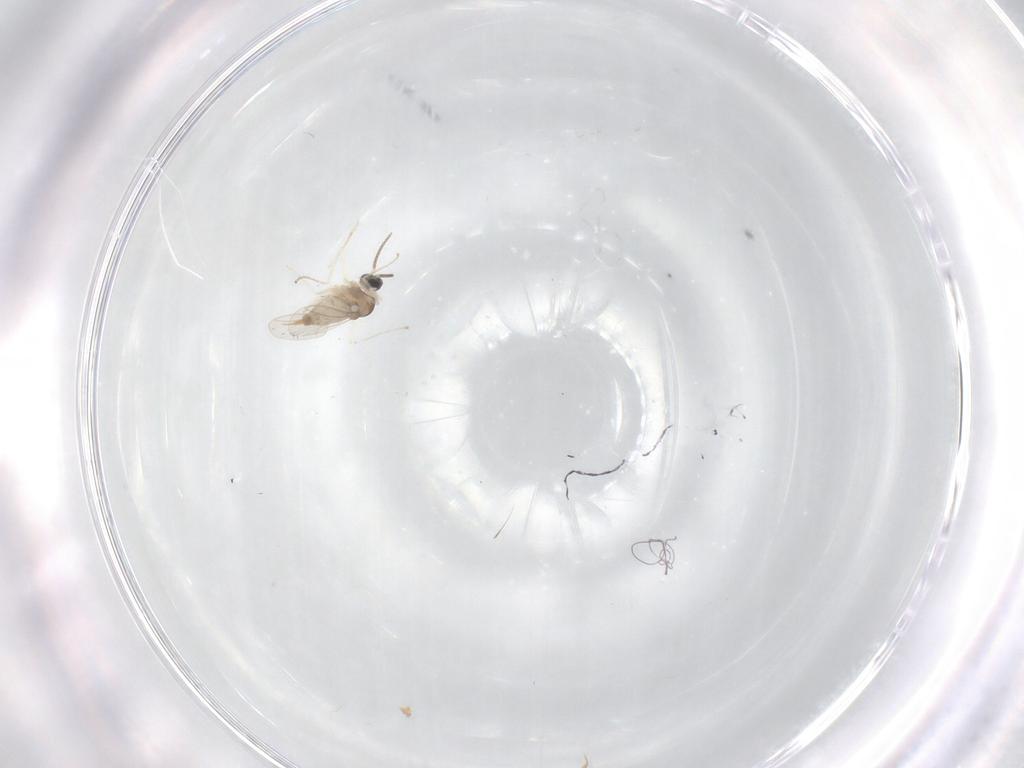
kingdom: Animalia
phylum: Arthropoda
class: Insecta
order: Diptera
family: Cecidomyiidae
